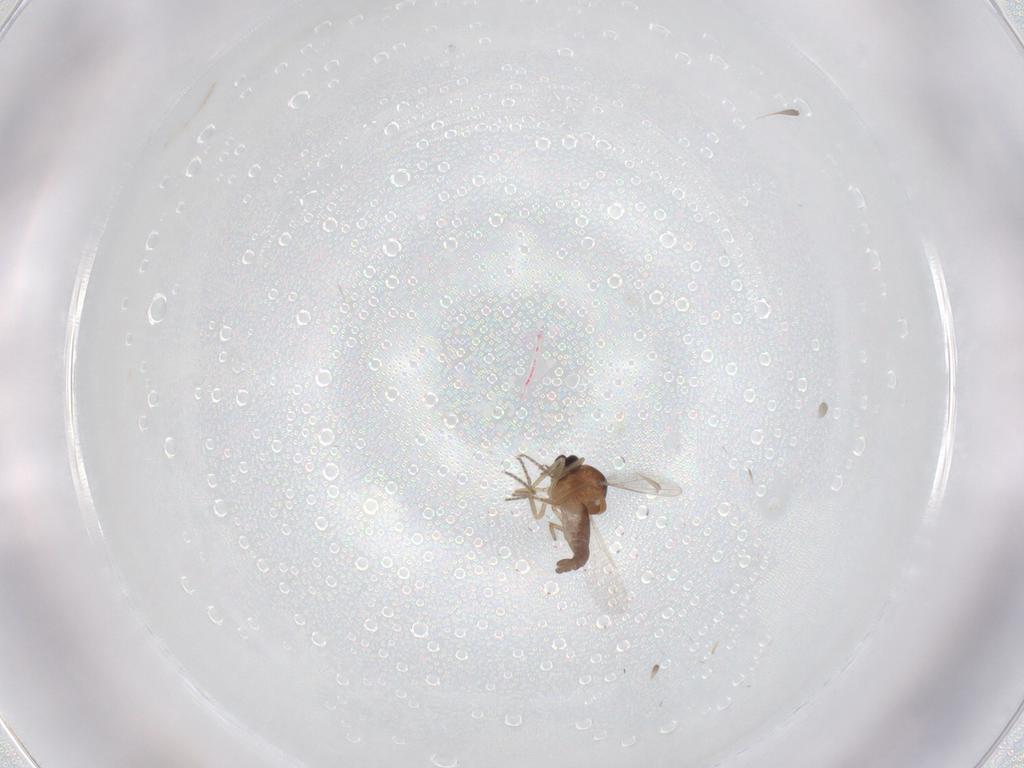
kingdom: Animalia
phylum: Arthropoda
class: Insecta
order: Diptera
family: Ceratopogonidae
